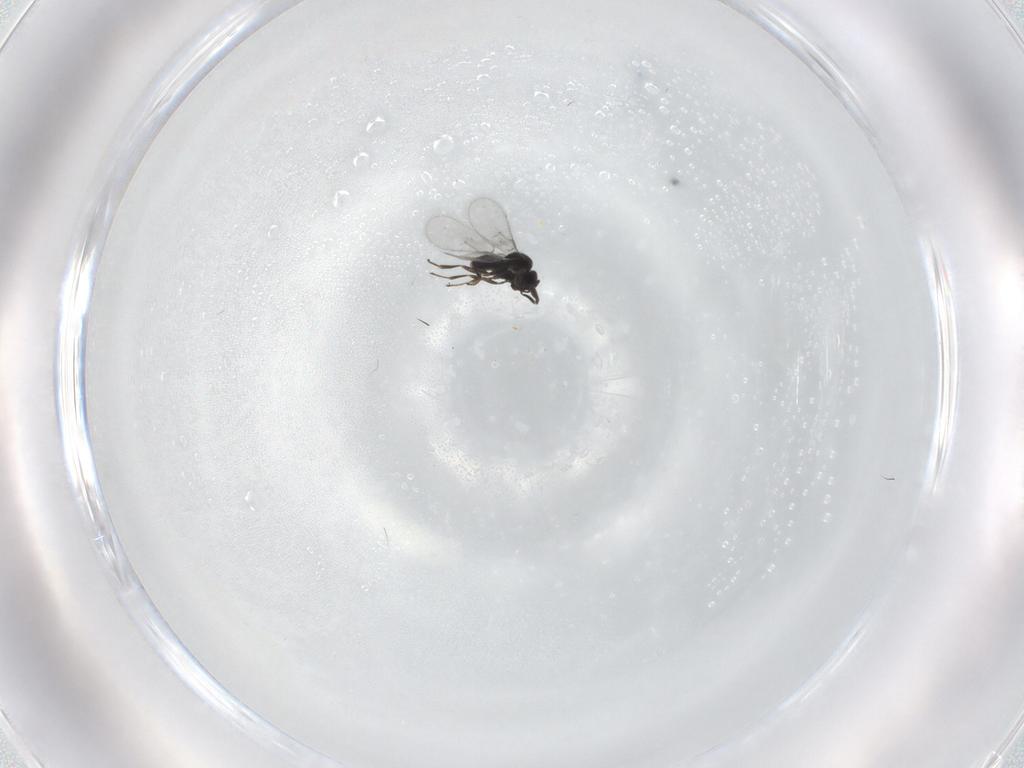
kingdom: Animalia
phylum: Arthropoda
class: Insecta
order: Hymenoptera
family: Scelionidae
